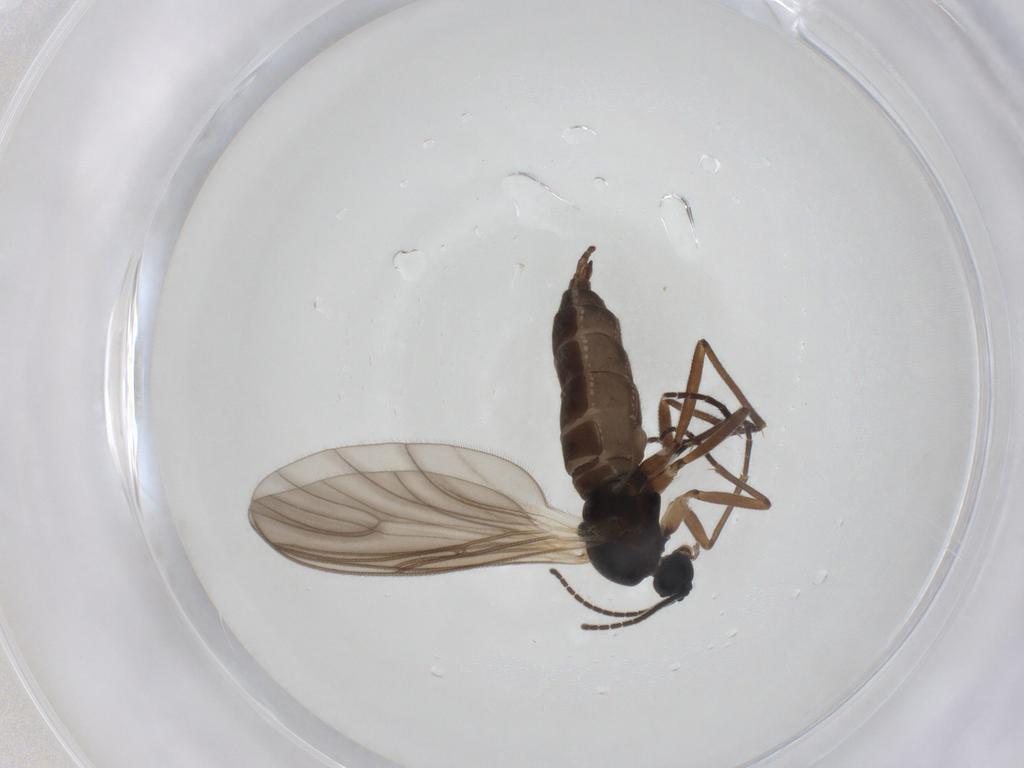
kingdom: Animalia
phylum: Arthropoda
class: Insecta
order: Diptera
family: Sciaridae
